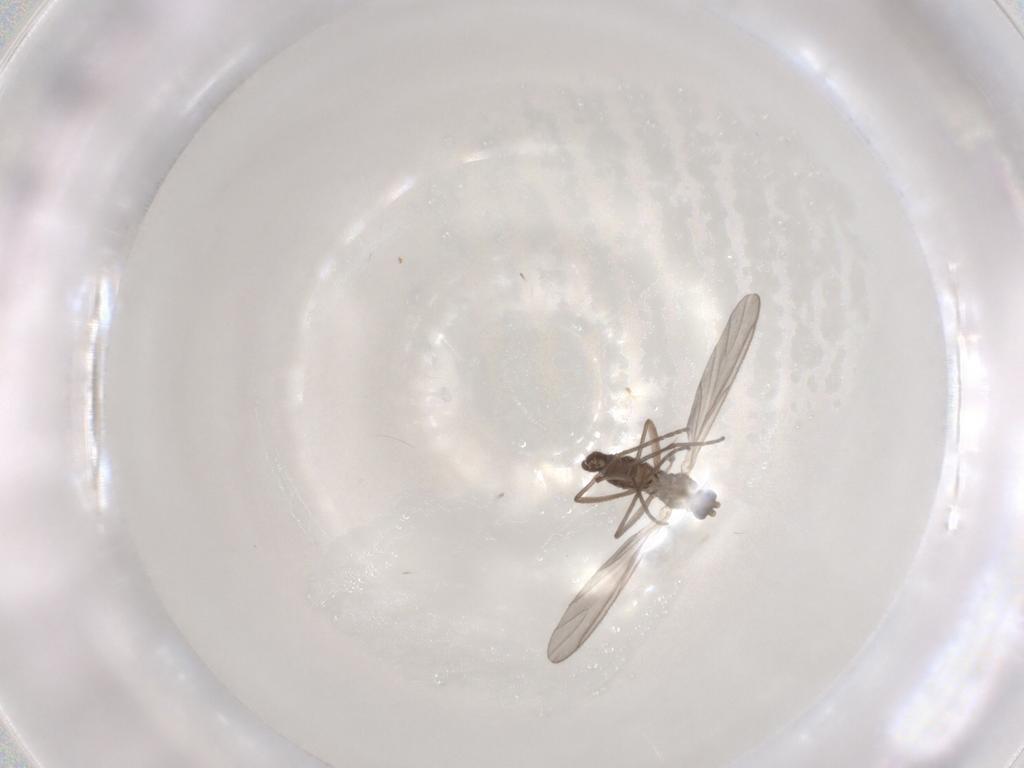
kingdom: Animalia
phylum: Arthropoda
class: Insecta
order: Diptera
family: Sciaridae
